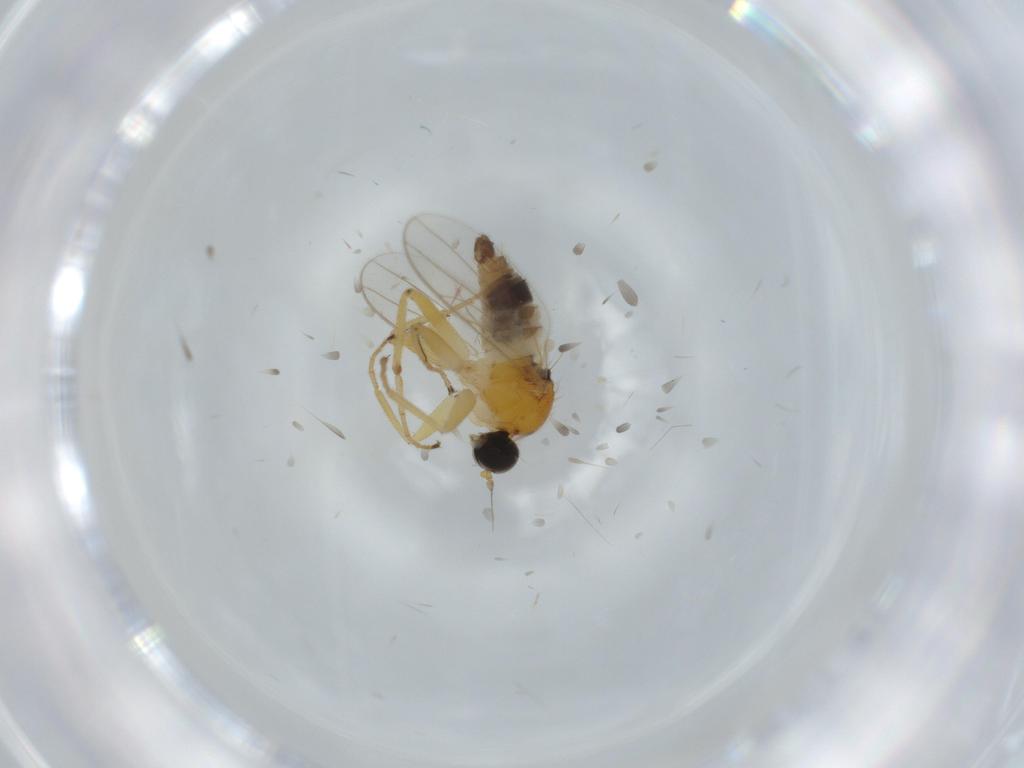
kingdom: Animalia
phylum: Arthropoda
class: Insecta
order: Diptera
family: Hybotidae
